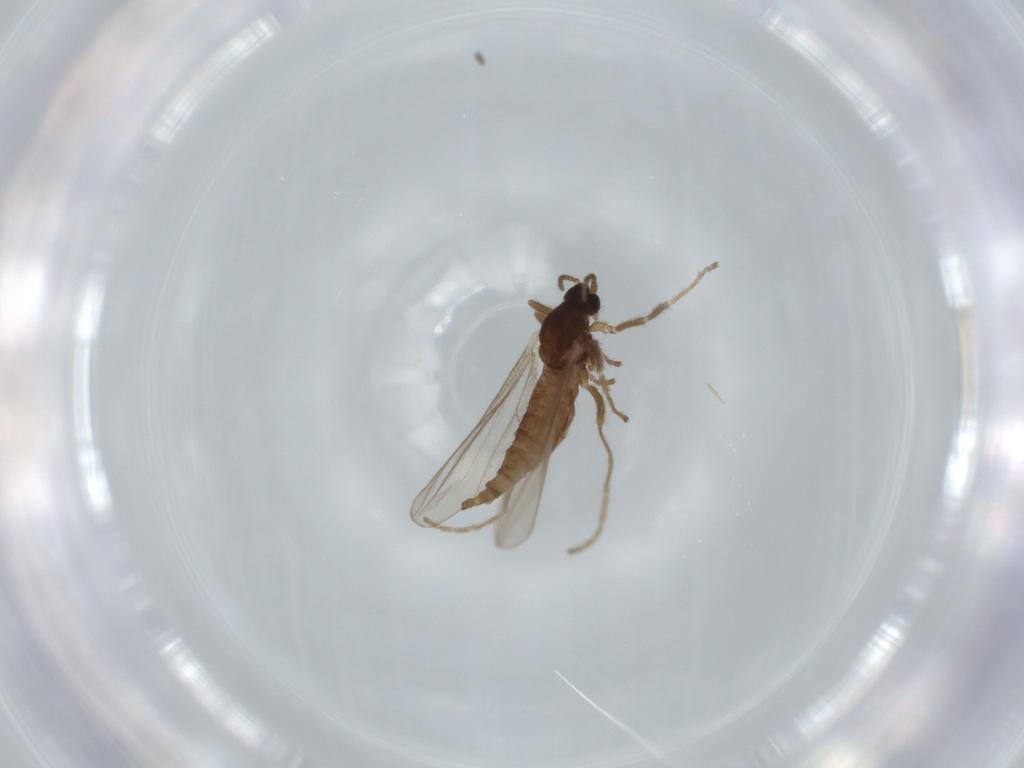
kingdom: Animalia
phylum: Arthropoda
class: Insecta
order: Diptera
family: Cecidomyiidae
